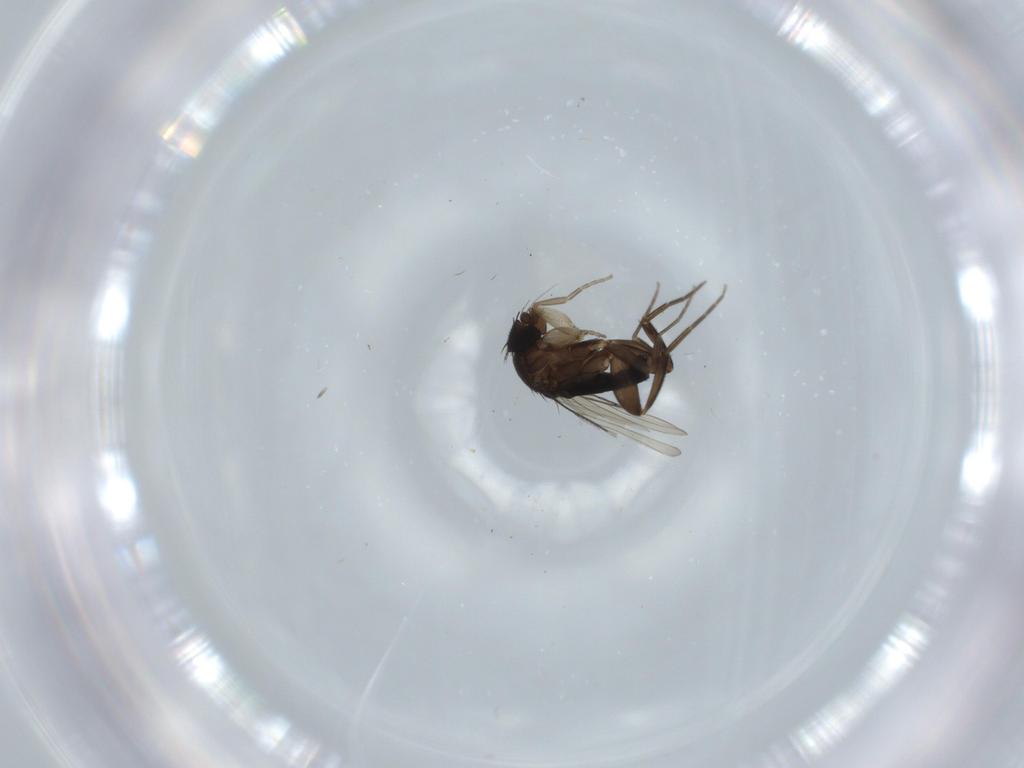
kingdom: Animalia
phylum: Arthropoda
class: Insecta
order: Diptera
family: Phoridae
